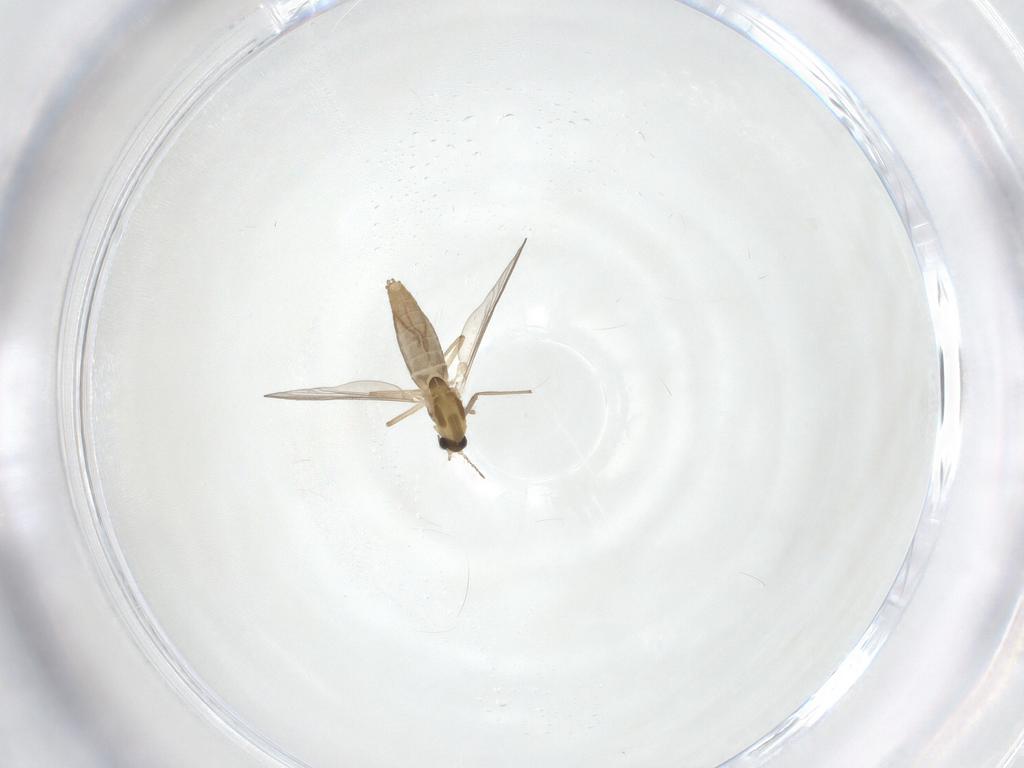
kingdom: Animalia
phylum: Arthropoda
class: Insecta
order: Diptera
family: Chironomidae
